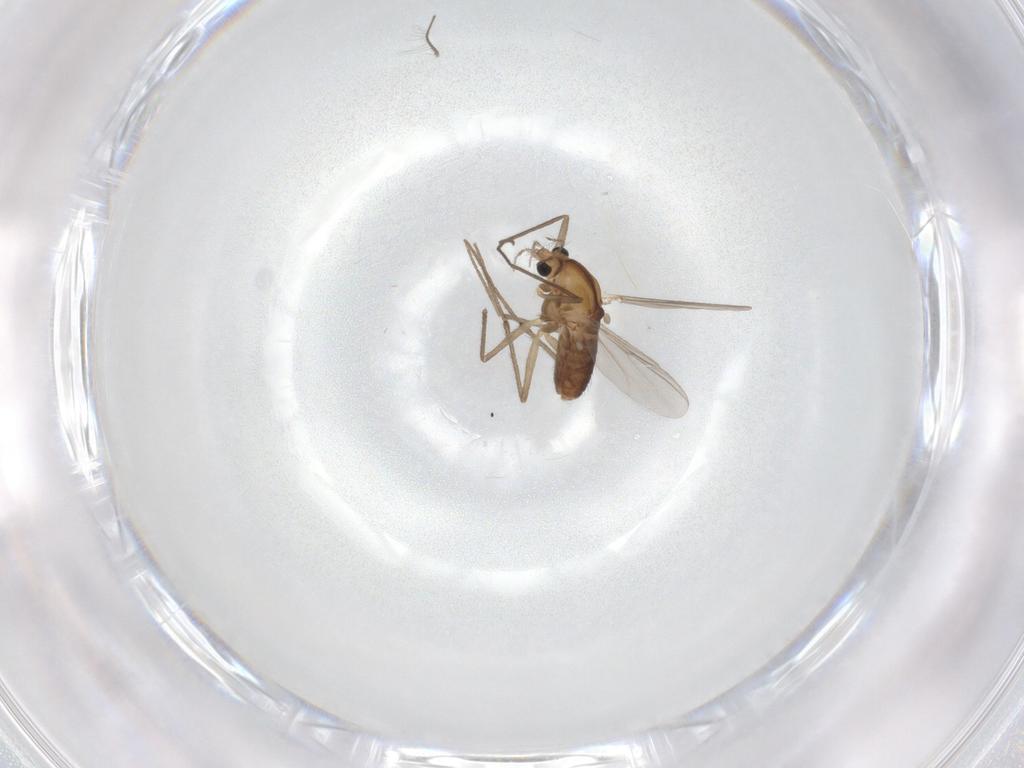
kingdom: Animalia
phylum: Arthropoda
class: Insecta
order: Diptera
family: Chironomidae
